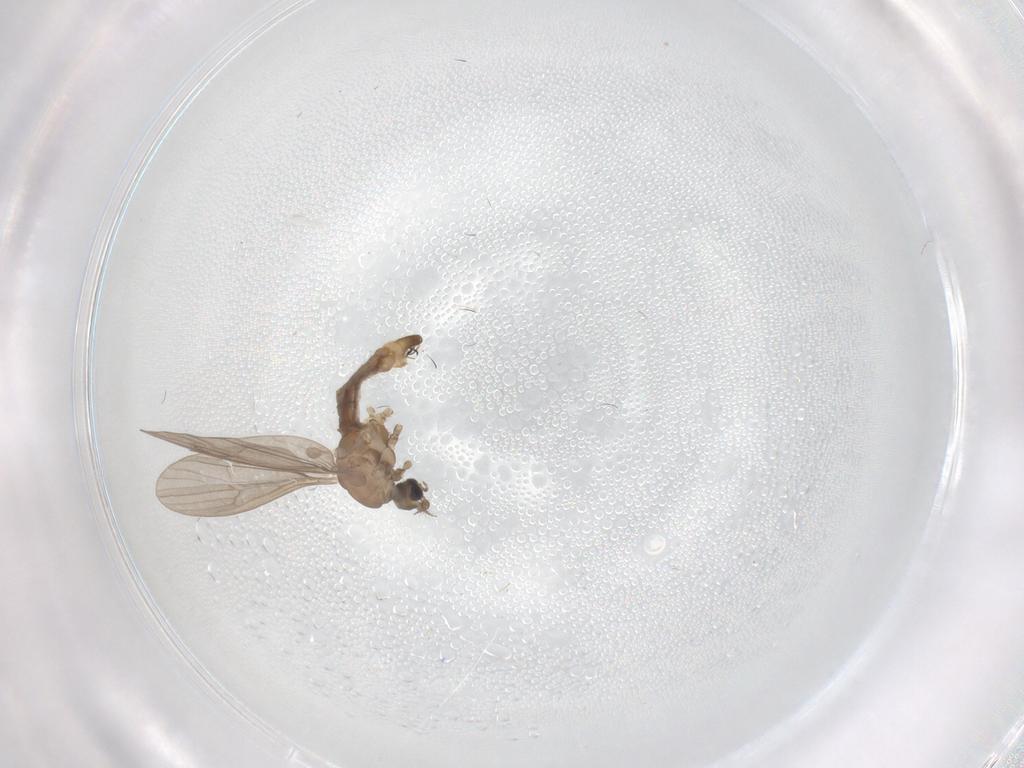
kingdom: Animalia
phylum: Arthropoda
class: Insecta
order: Diptera
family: Limoniidae
